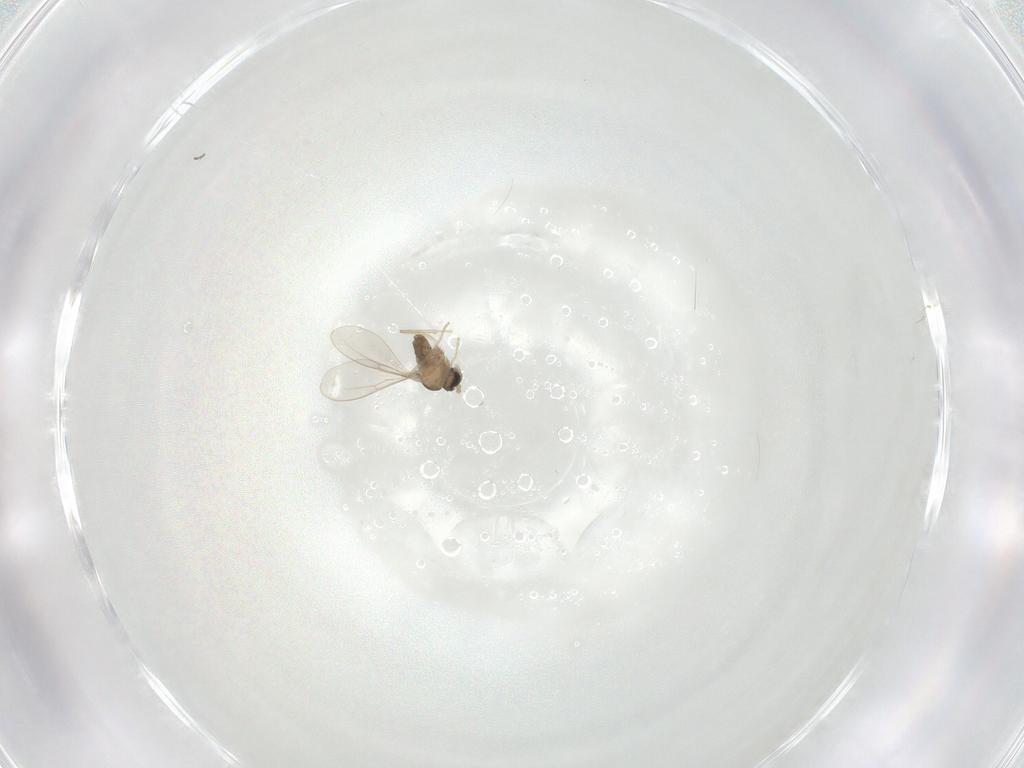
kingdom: Animalia
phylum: Arthropoda
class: Insecta
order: Diptera
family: Cecidomyiidae
